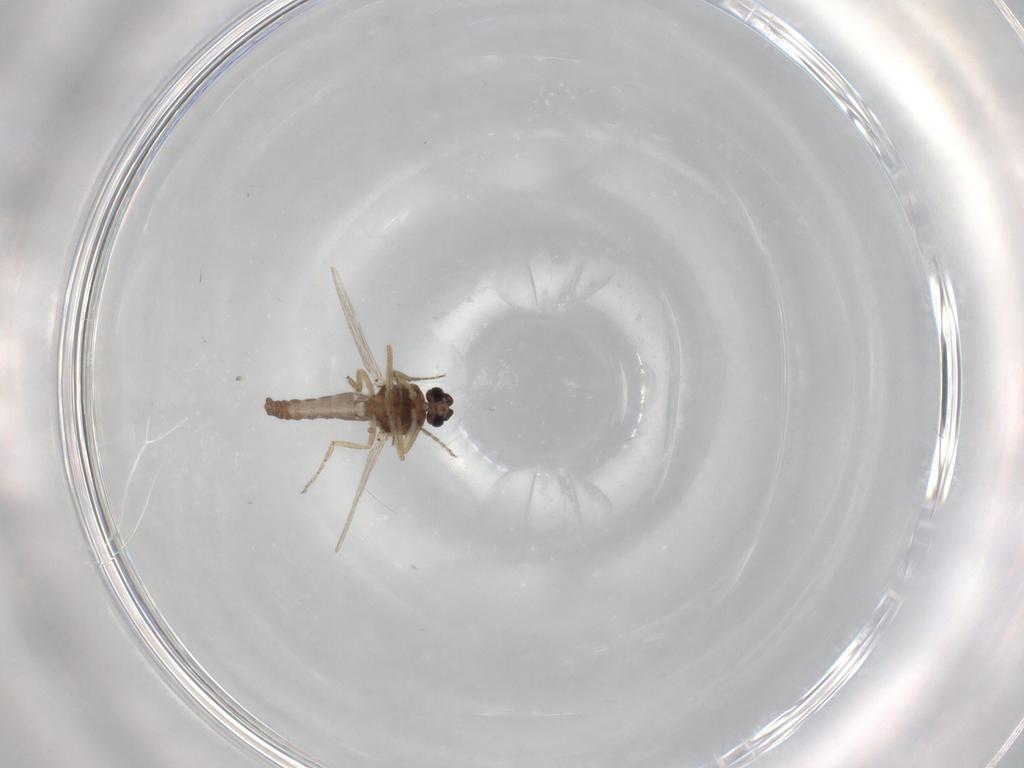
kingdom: Animalia
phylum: Arthropoda
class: Insecta
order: Diptera
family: Ceratopogonidae
